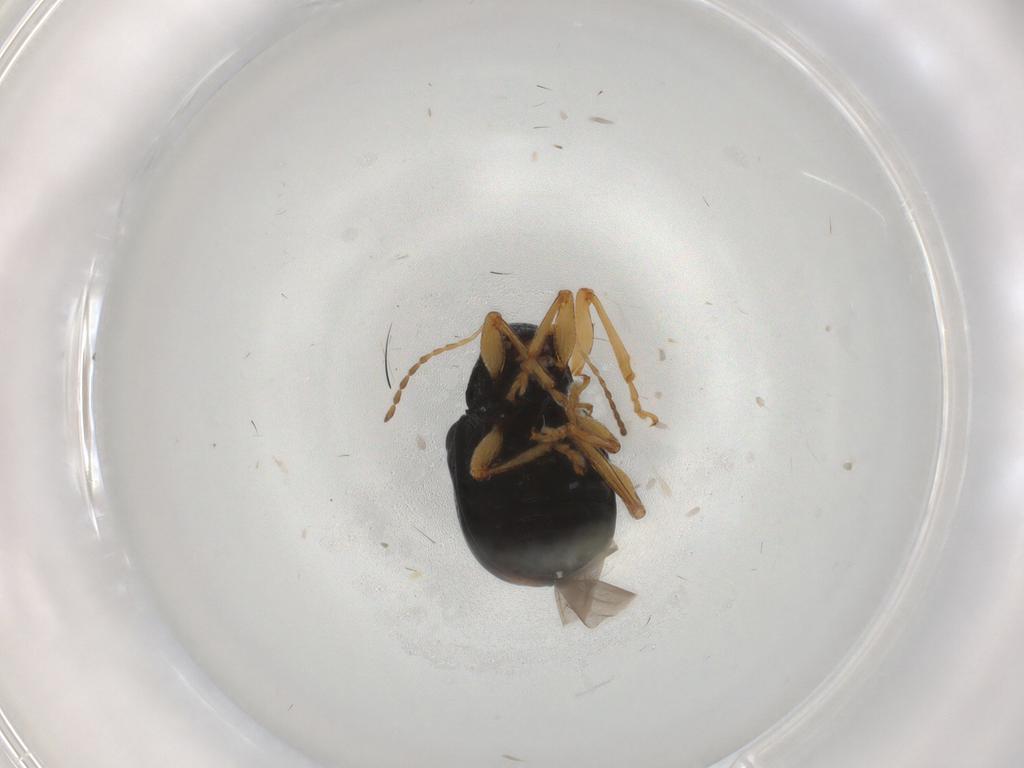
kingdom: Animalia
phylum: Arthropoda
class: Insecta
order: Coleoptera
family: Chrysomelidae
